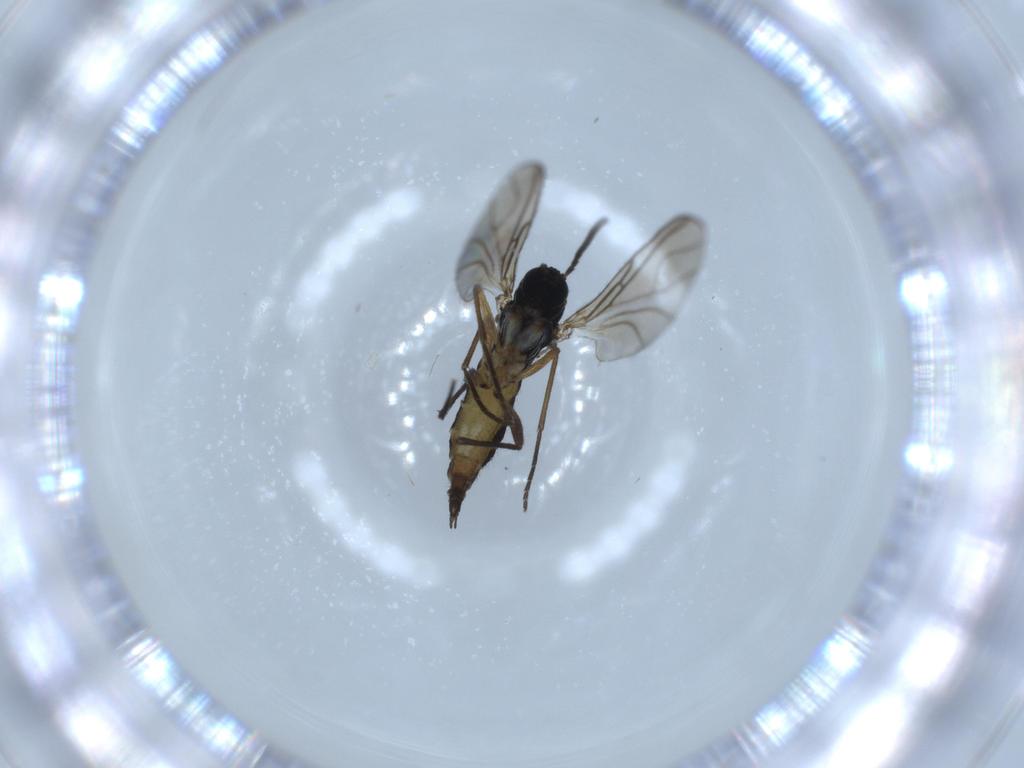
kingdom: Animalia
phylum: Arthropoda
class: Insecta
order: Diptera
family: Sciaridae
